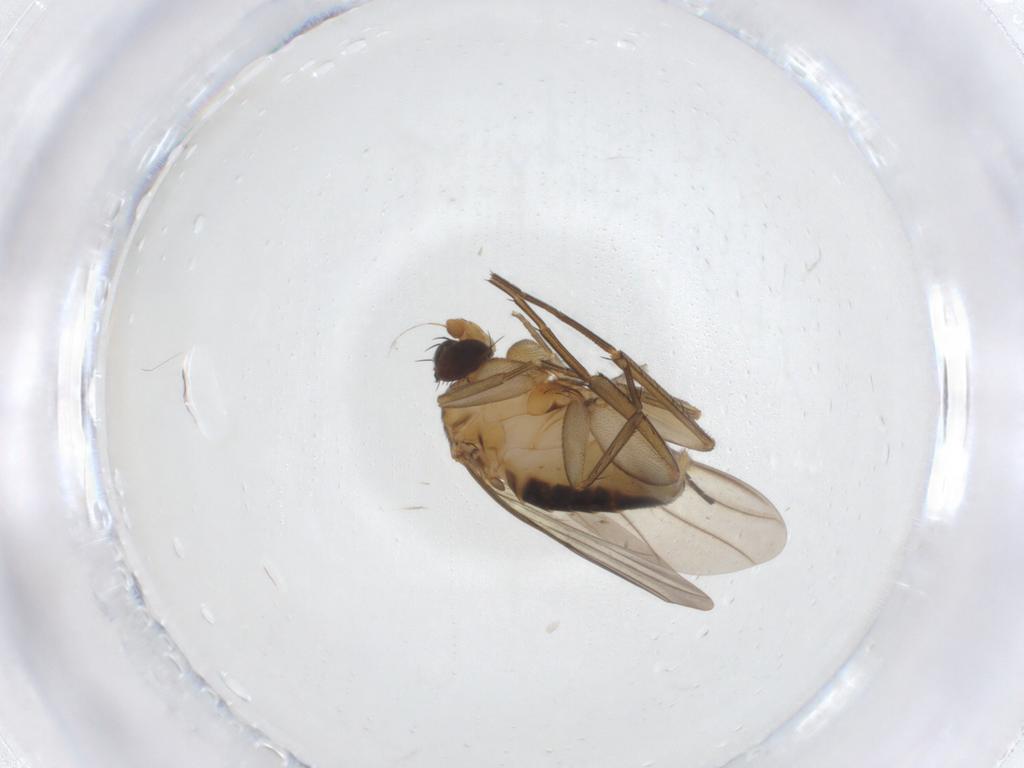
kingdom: Animalia
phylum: Arthropoda
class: Insecta
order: Diptera
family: Phoridae
